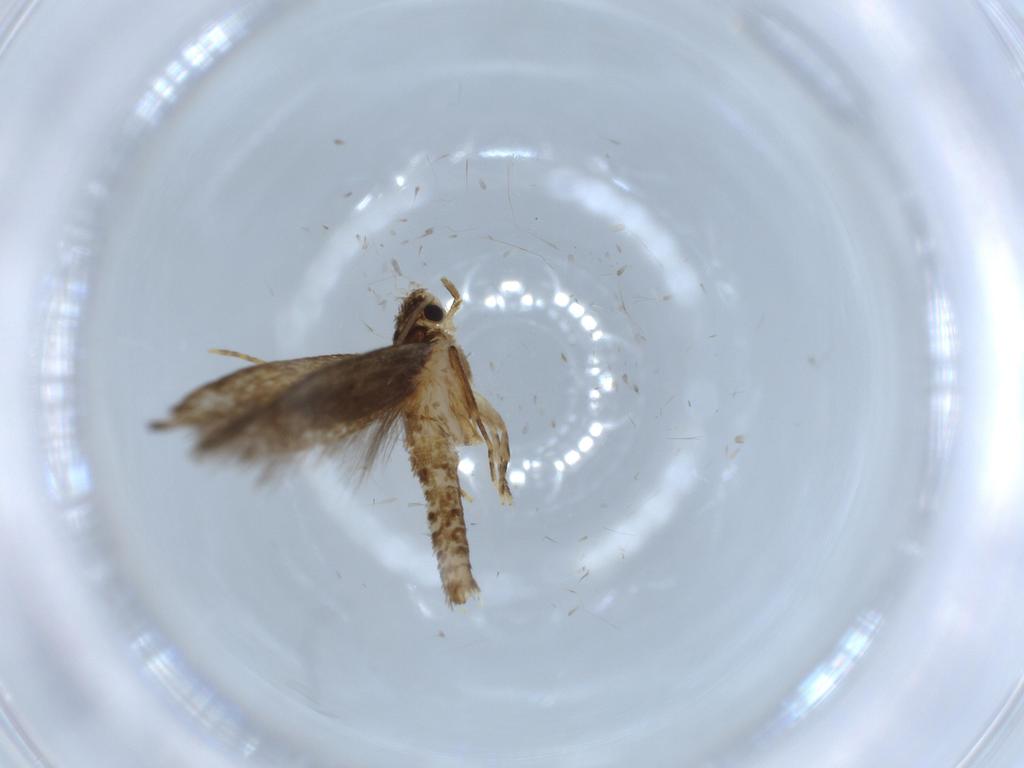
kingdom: Animalia
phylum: Arthropoda
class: Insecta
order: Lepidoptera
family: Tineidae
